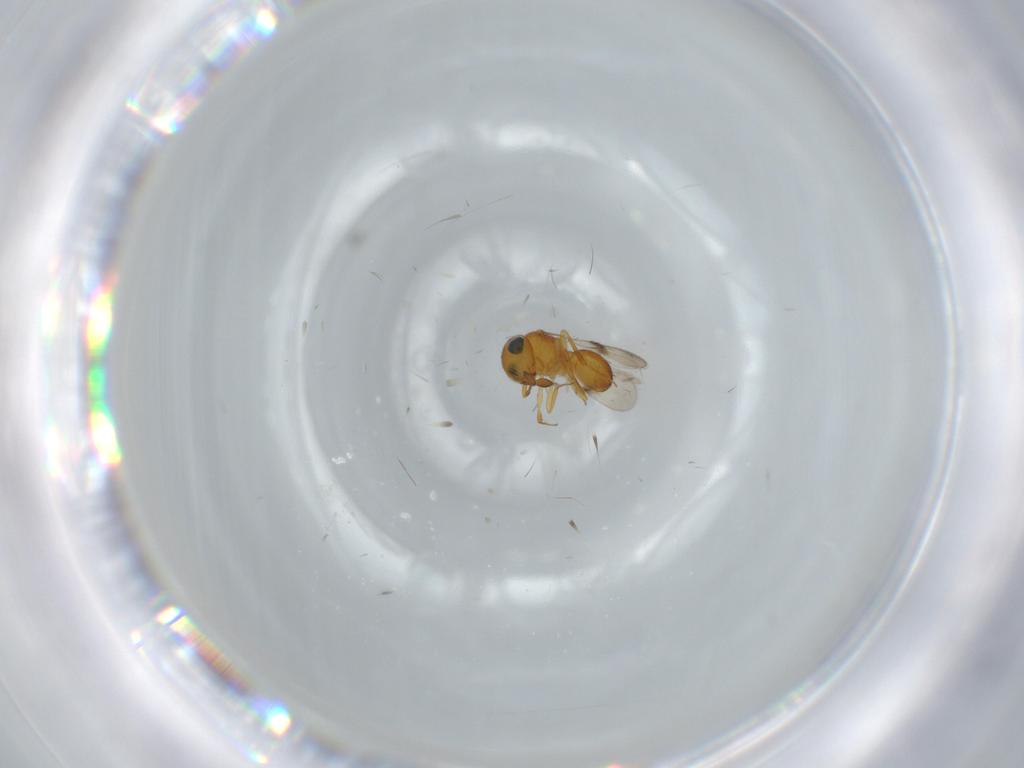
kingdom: Animalia
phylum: Arthropoda
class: Insecta
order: Hymenoptera
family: Scelionidae
